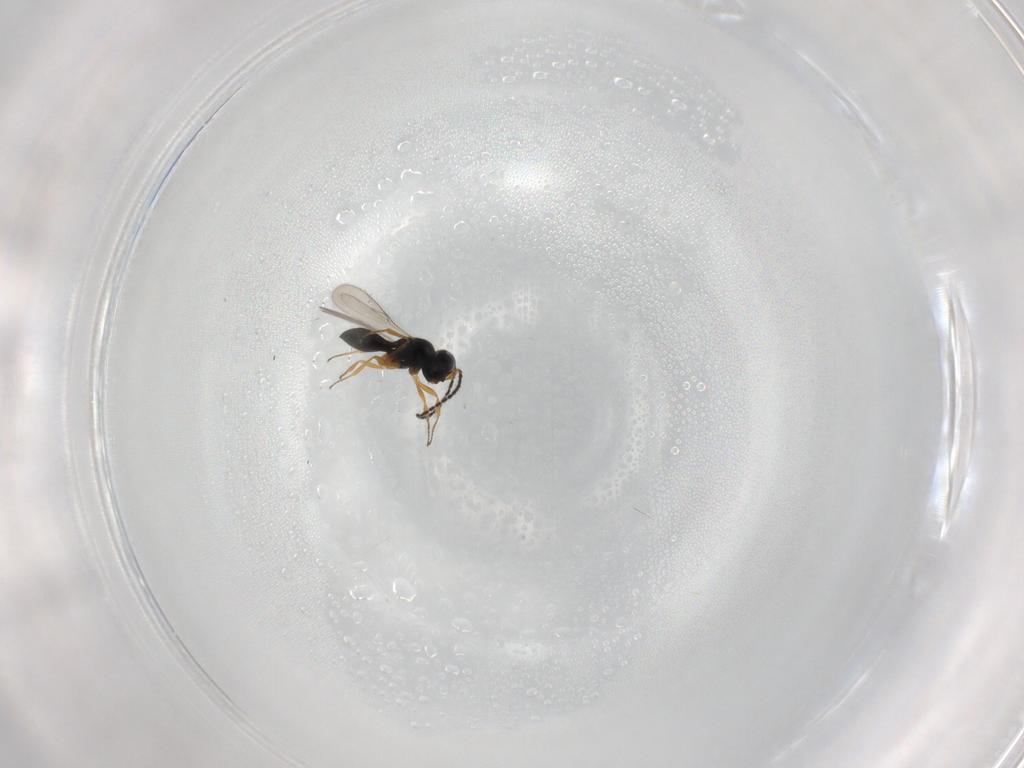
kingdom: Animalia
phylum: Arthropoda
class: Insecta
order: Hymenoptera
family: Scelionidae
